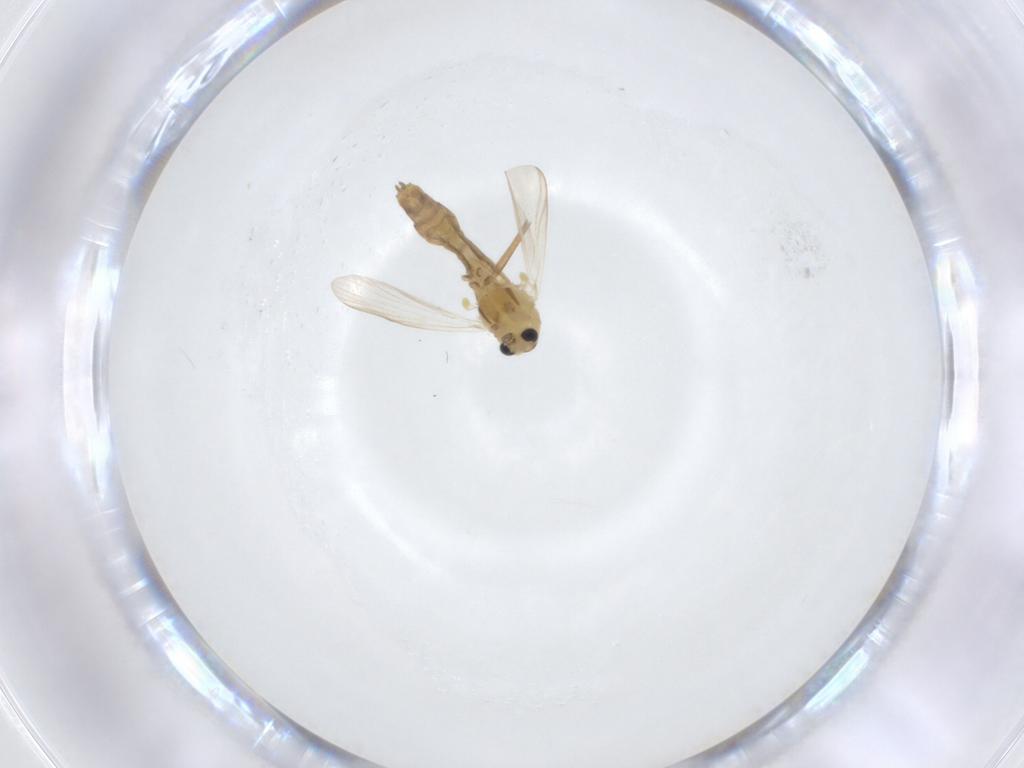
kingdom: Animalia
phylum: Arthropoda
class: Insecta
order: Diptera
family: Chironomidae
